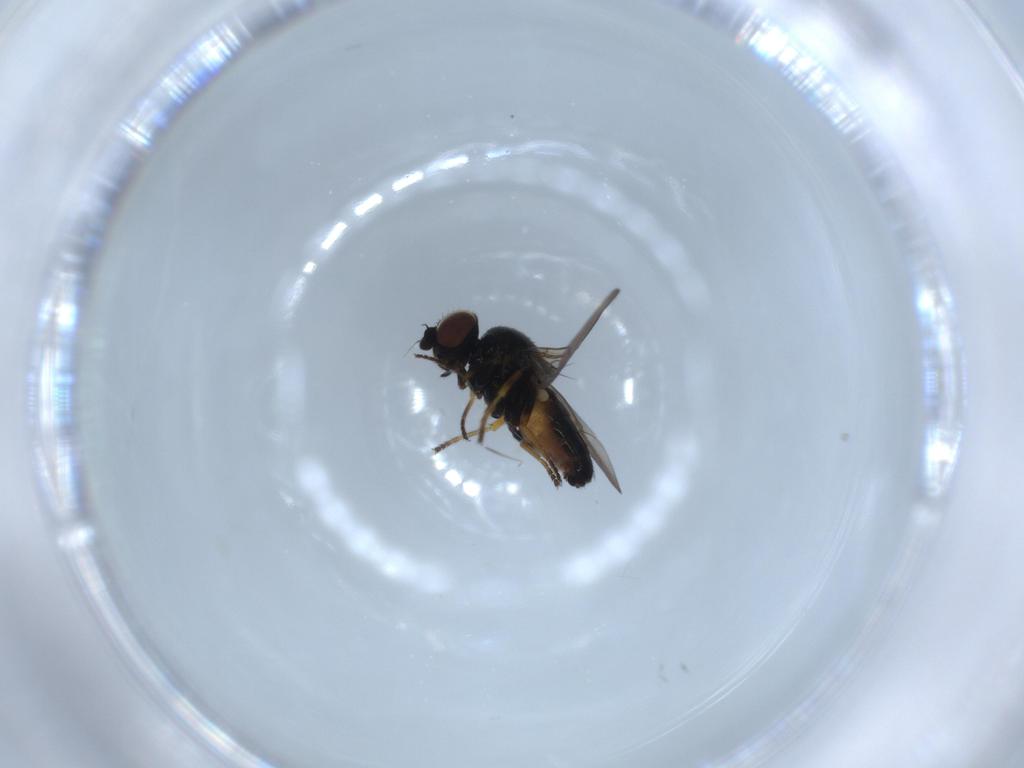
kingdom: Animalia
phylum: Arthropoda
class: Insecta
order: Diptera
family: Chloropidae
